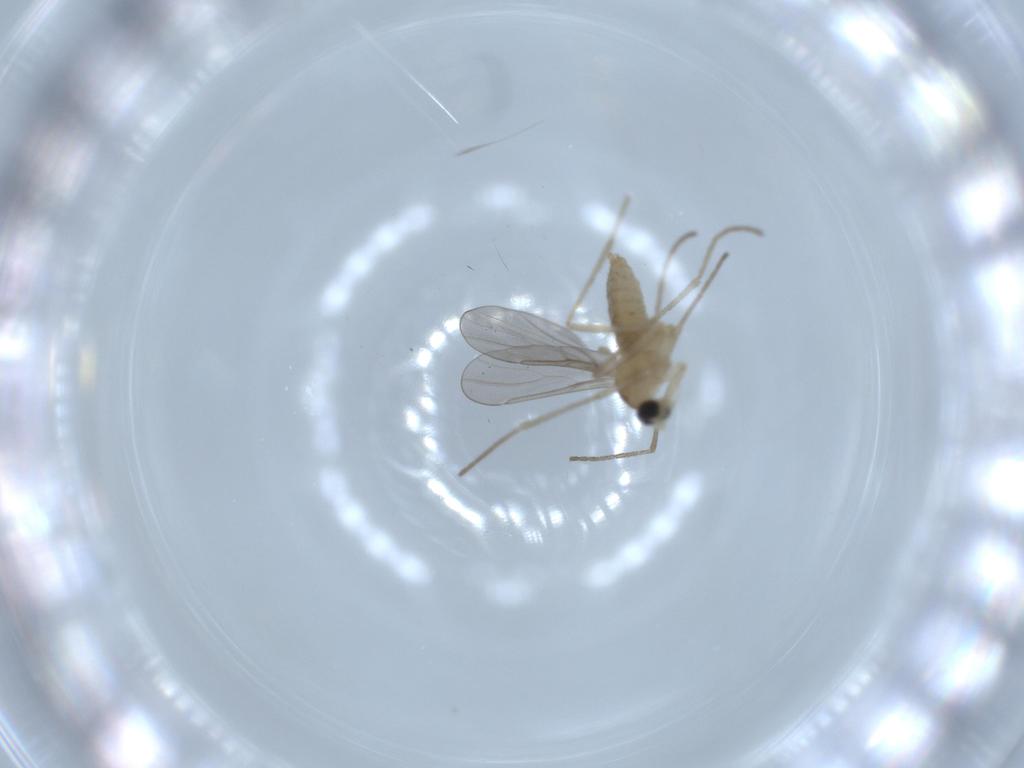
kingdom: Animalia
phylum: Arthropoda
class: Insecta
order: Diptera
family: Cecidomyiidae
